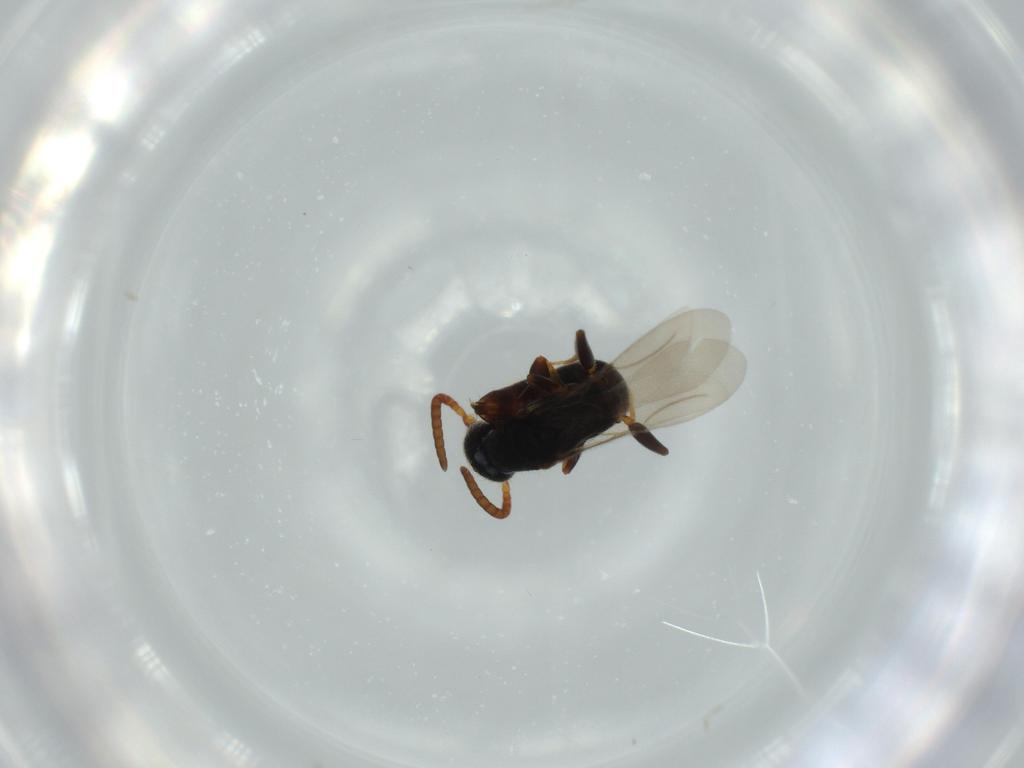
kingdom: Animalia
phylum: Arthropoda
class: Insecta
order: Hymenoptera
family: Bethylidae
